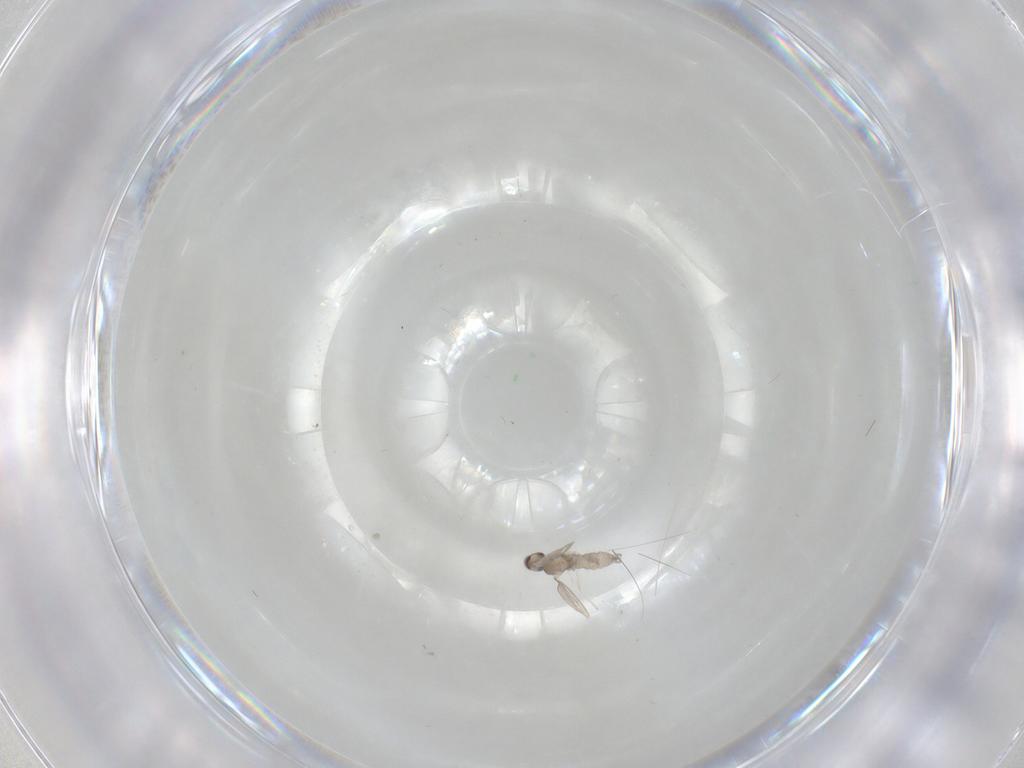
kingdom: Animalia
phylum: Arthropoda
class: Insecta
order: Diptera
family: Cecidomyiidae
